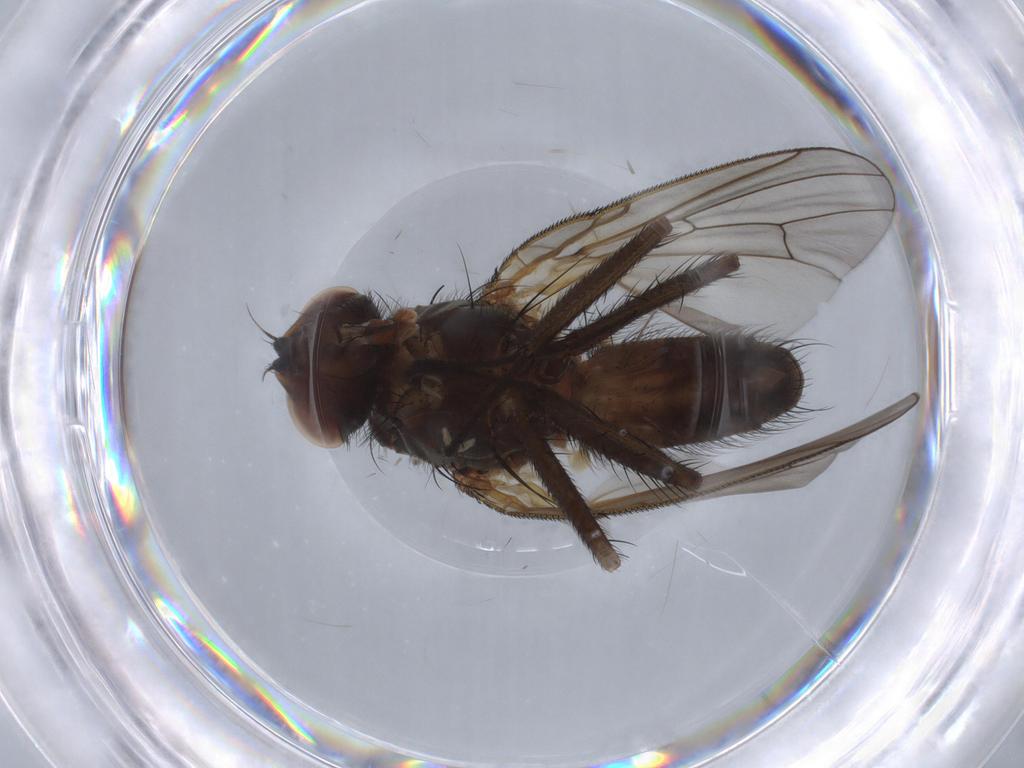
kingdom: Animalia
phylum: Arthropoda
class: Insecta
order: Diptera
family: Anthomyiidae
